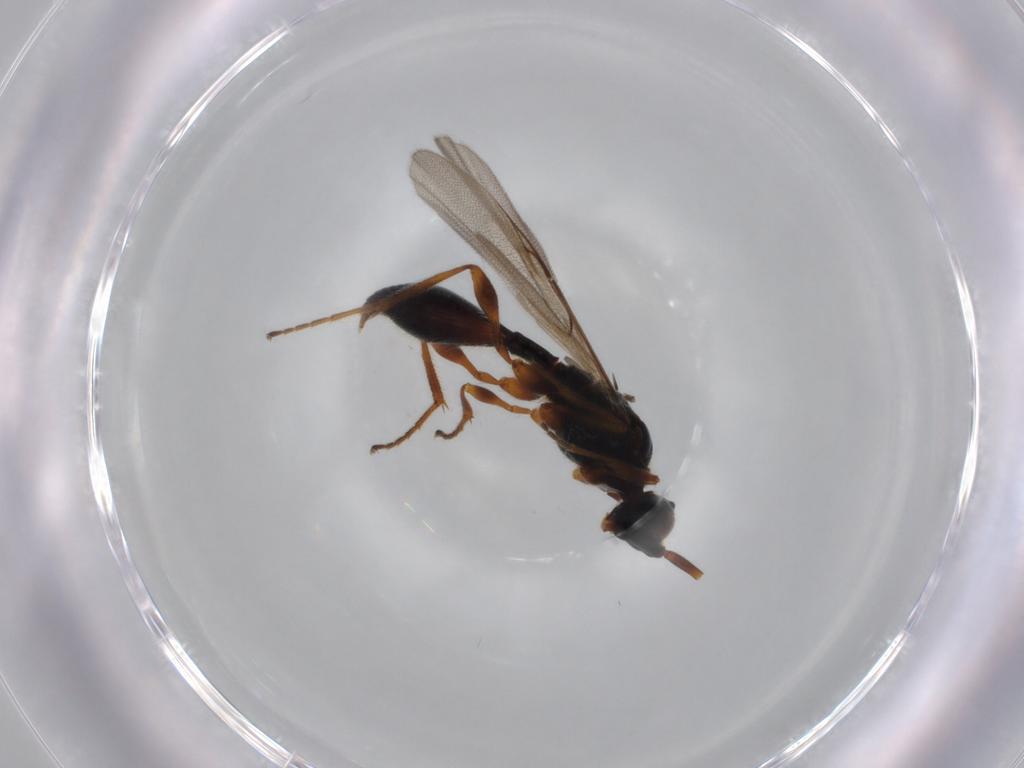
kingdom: Animalia
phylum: Arthropoda
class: Insecta
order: Hymenoptera
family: Braconidae
